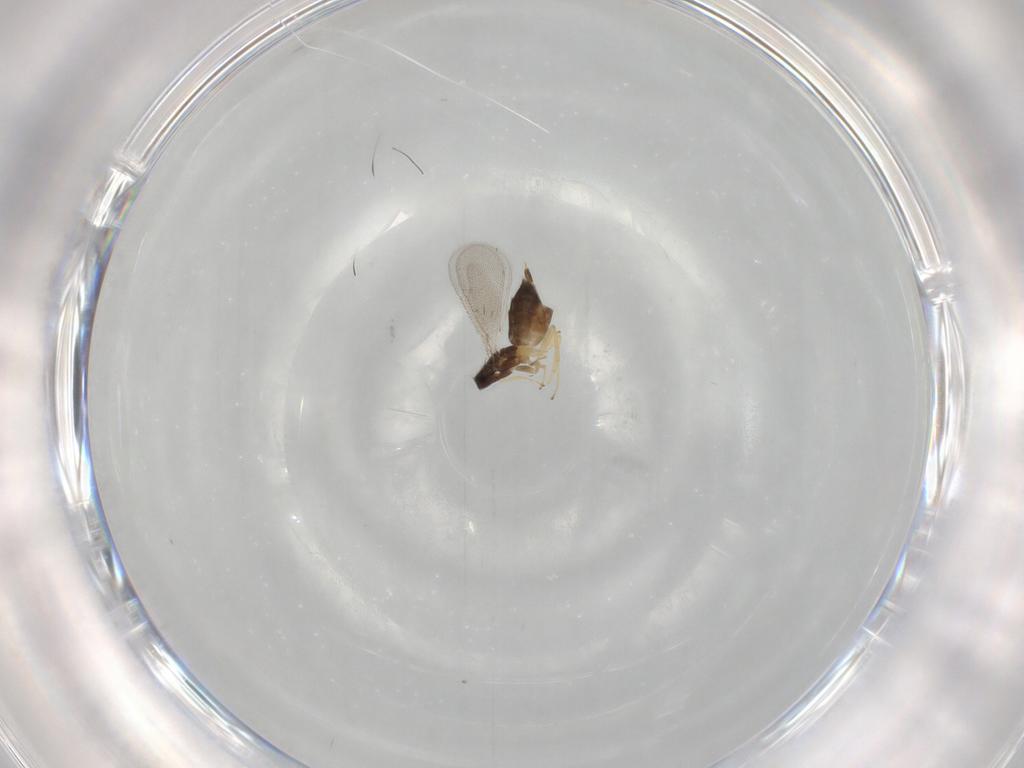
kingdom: Animalia
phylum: Arthropoda
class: Insecta
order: Hymenoptera
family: Eulophidae
